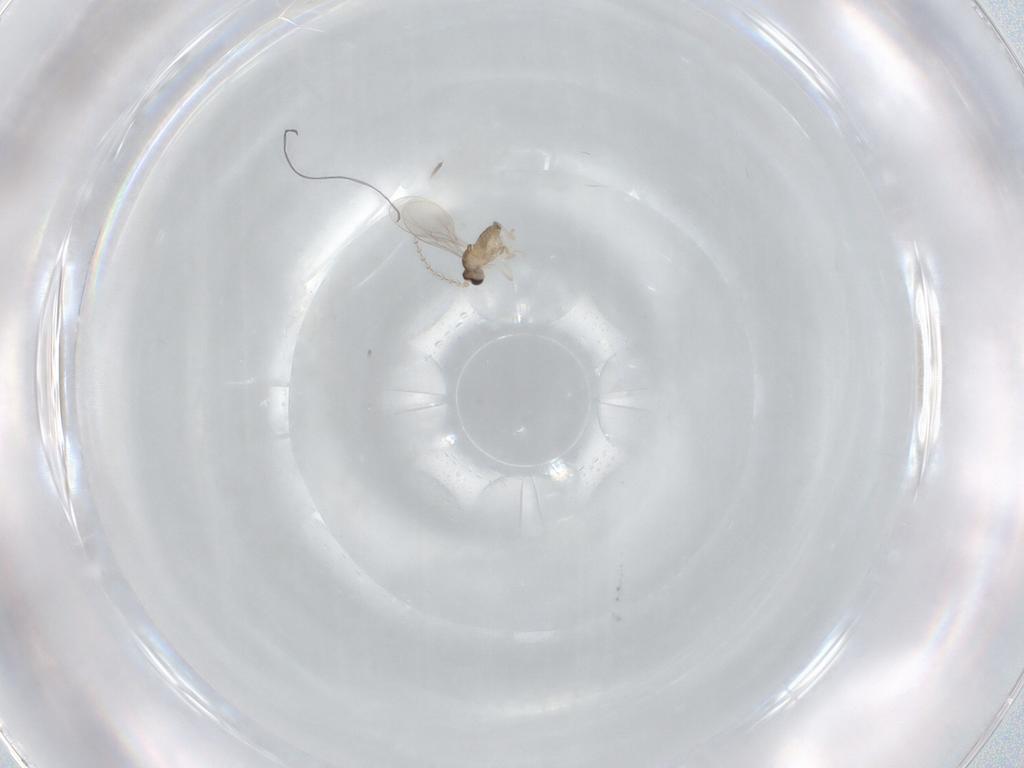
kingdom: Animalia
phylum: Arthropoda
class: Insecta
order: Diptera
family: Cecidomyiidae
